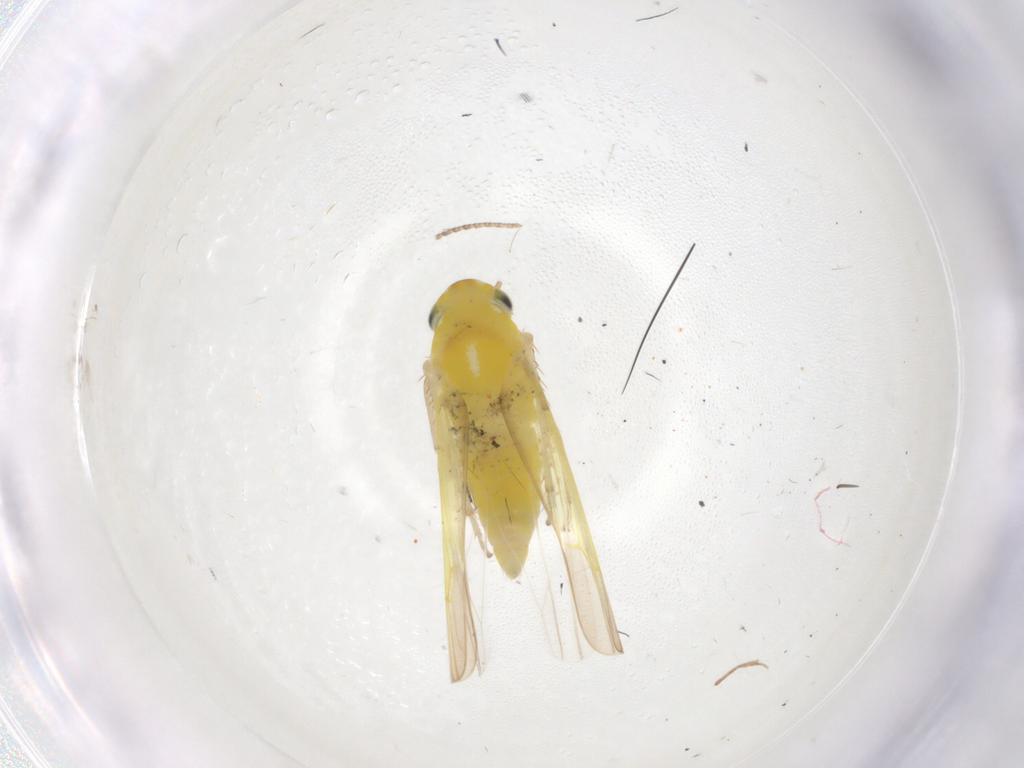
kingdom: Animalia
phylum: Arthropoda
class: Insecta
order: Hemiptera
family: Cicadellidae
